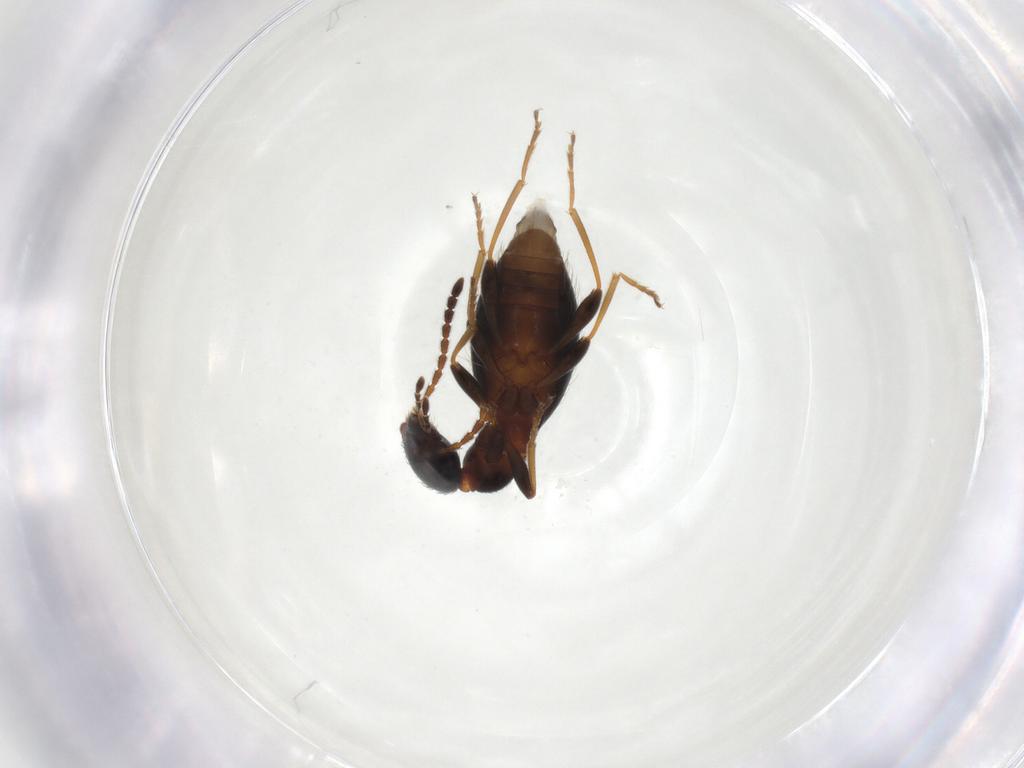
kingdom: Animalia
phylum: Arthropoda
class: Insecta
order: Coleoptera
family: Anthicidae
